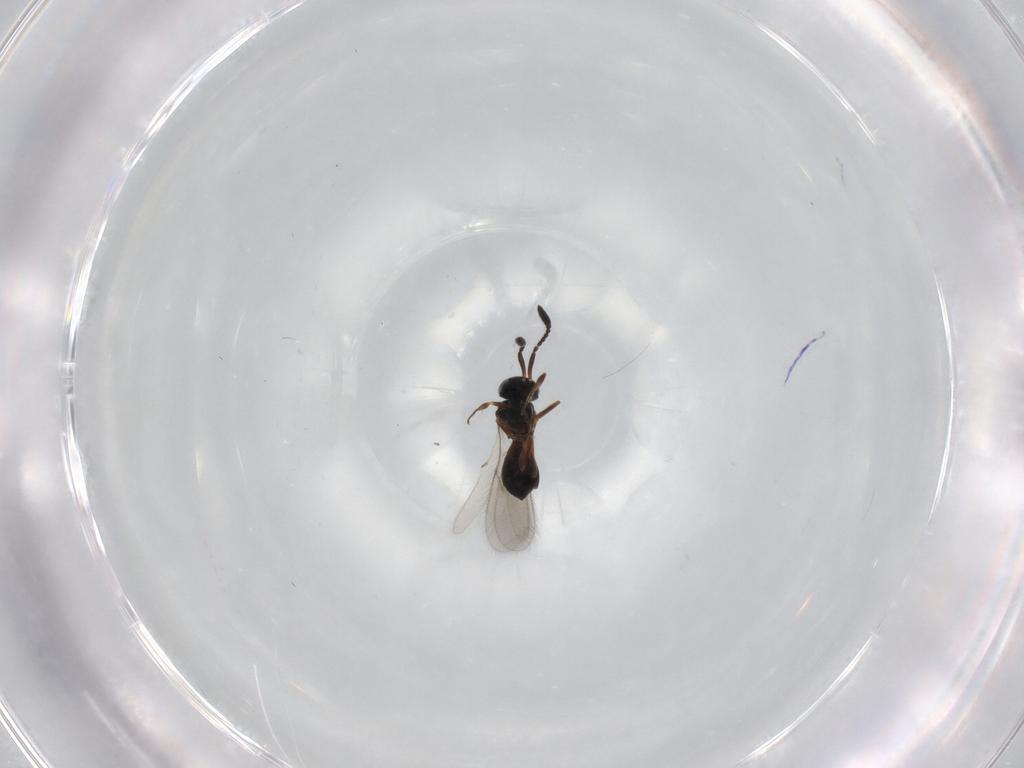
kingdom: Animalia
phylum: Arthropoda
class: Insecta
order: Hymenoptera
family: Scelionidae
